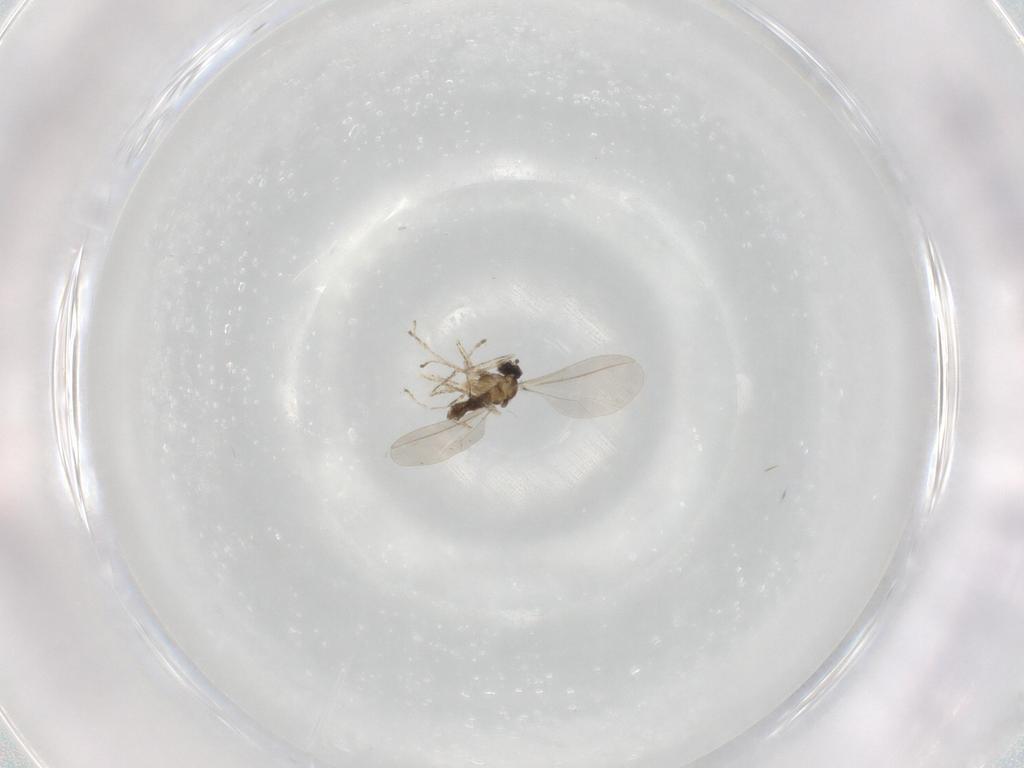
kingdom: Animalia
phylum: Arthropoda
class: Insecta
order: Diptera
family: Cecidomyiidae
